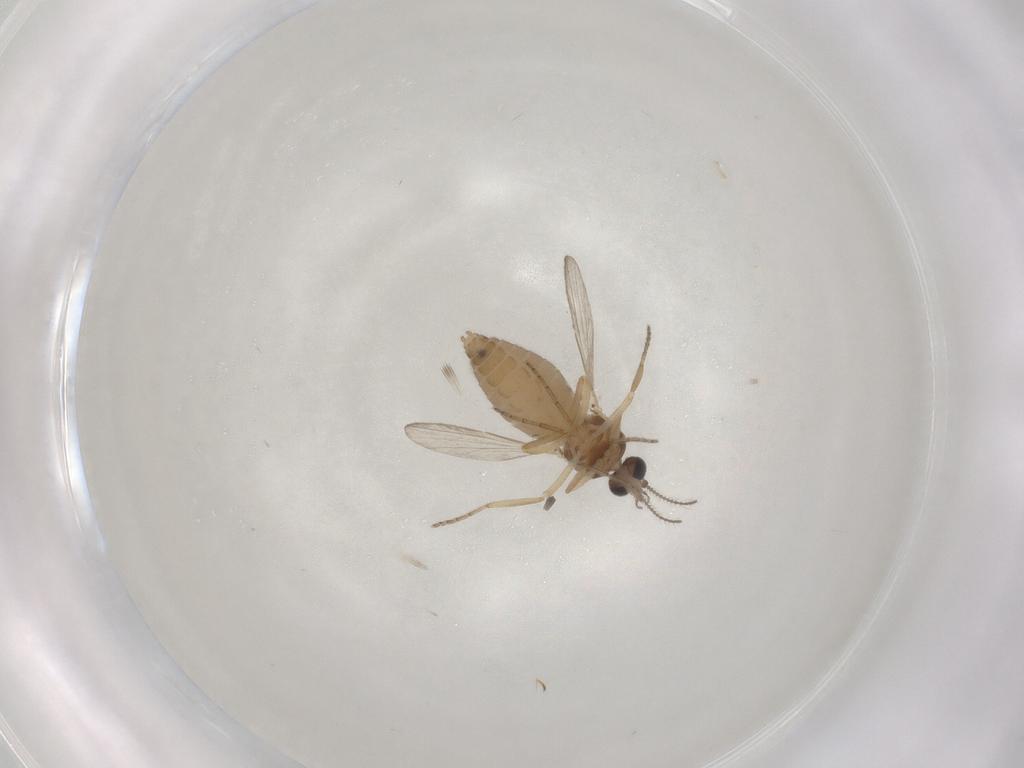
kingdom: Animalia
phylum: Arthropoda
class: Insecta
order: Diptera
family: Ceratopogonidae
